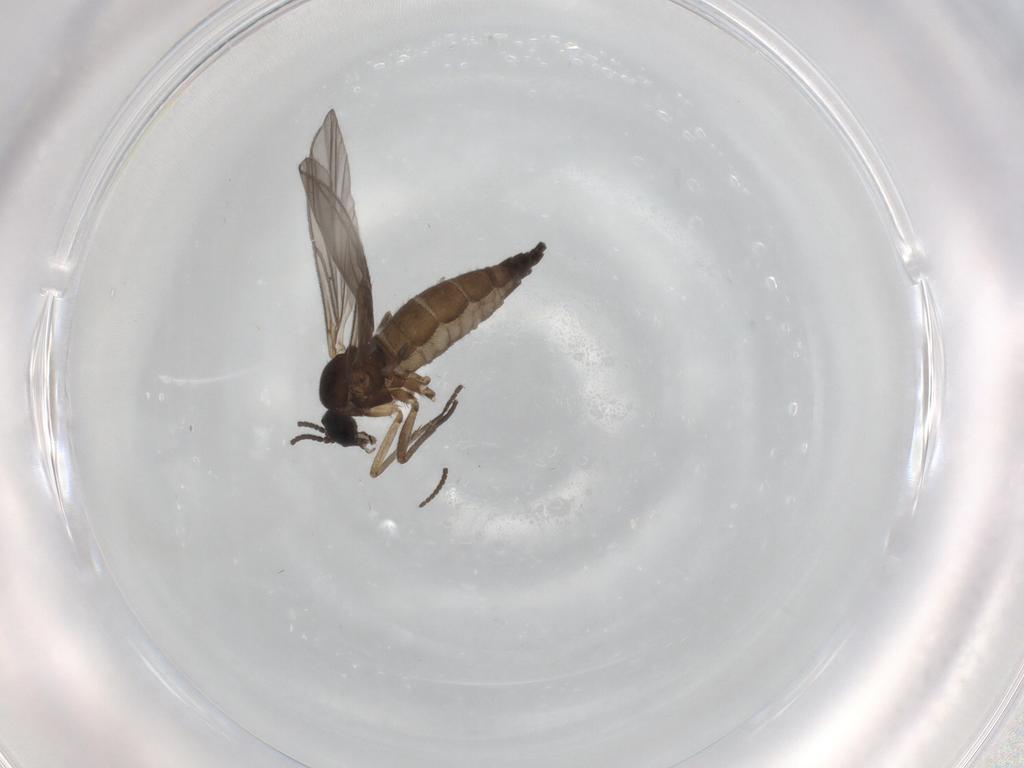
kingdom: Animalia
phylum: Arthropoda
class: Insecta
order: Diptera
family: Sciaridae
